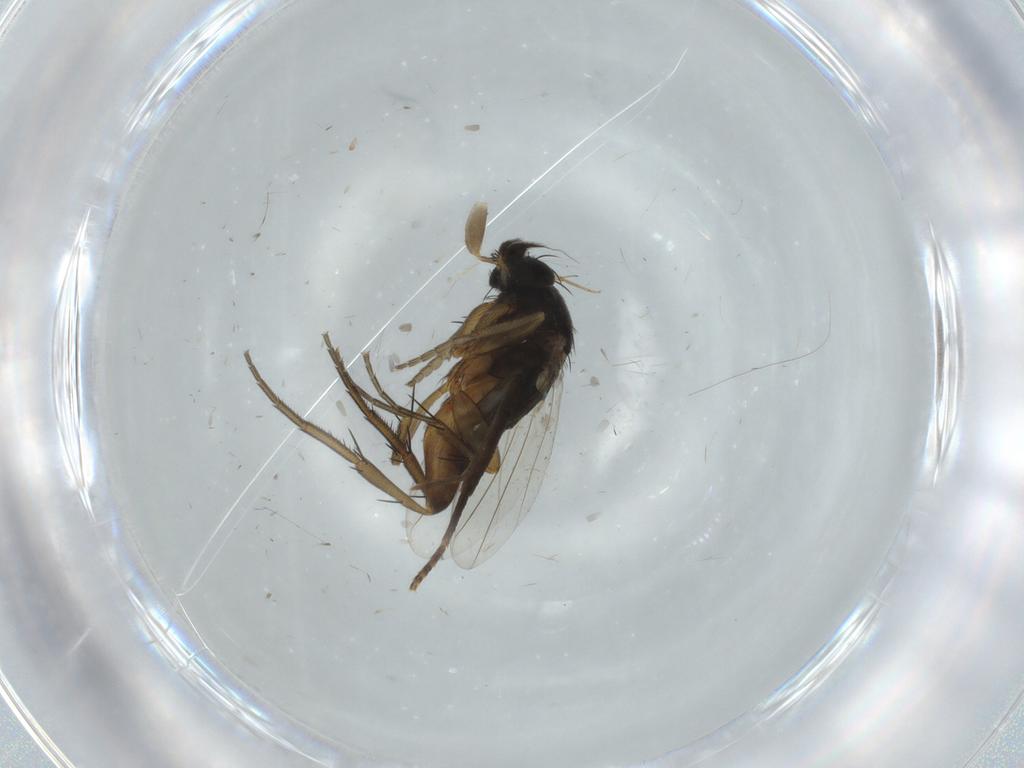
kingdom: Animalia
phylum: Arthropoda
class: Insecta
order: Diptera
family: Phoridae
